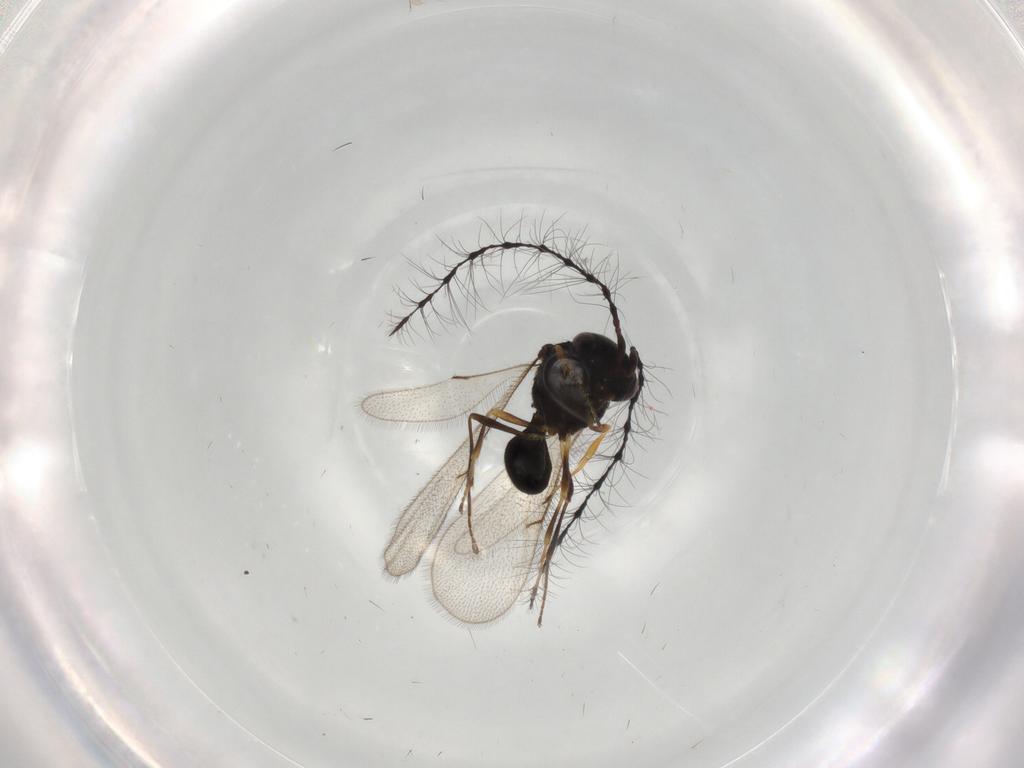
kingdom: Animalia
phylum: Arthropoda
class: Insecta
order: Hymenoptera
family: Scelionidae
